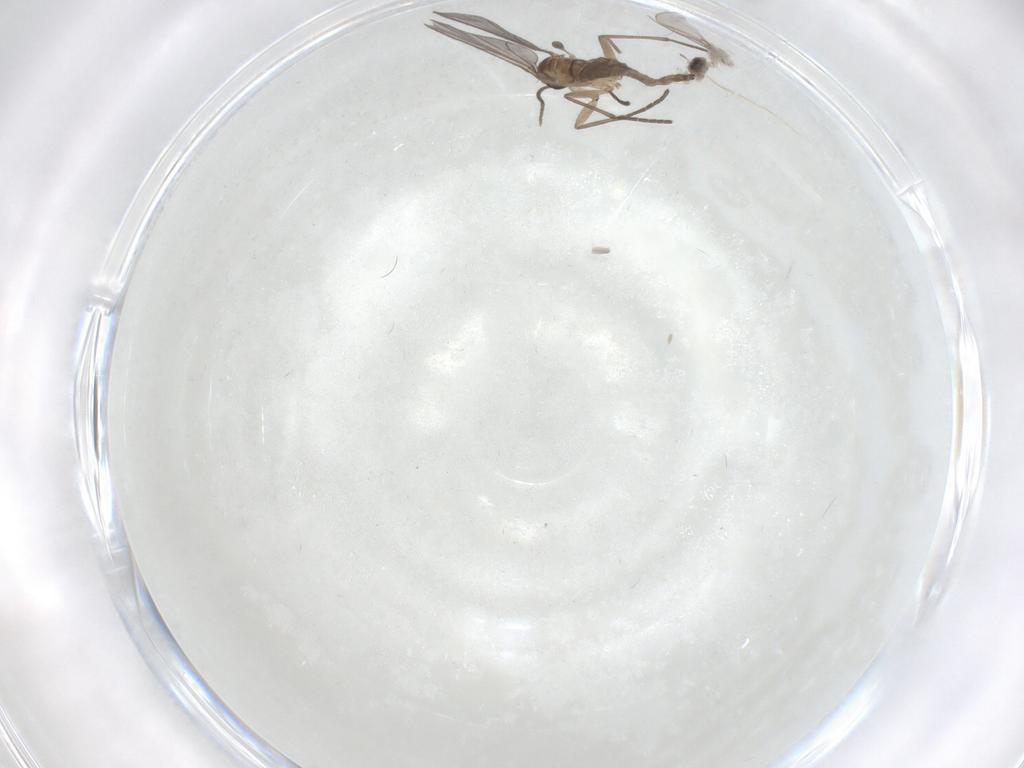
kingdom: Animalia
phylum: Arthropoda
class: Insecta
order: Diptera
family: Sciaridae
